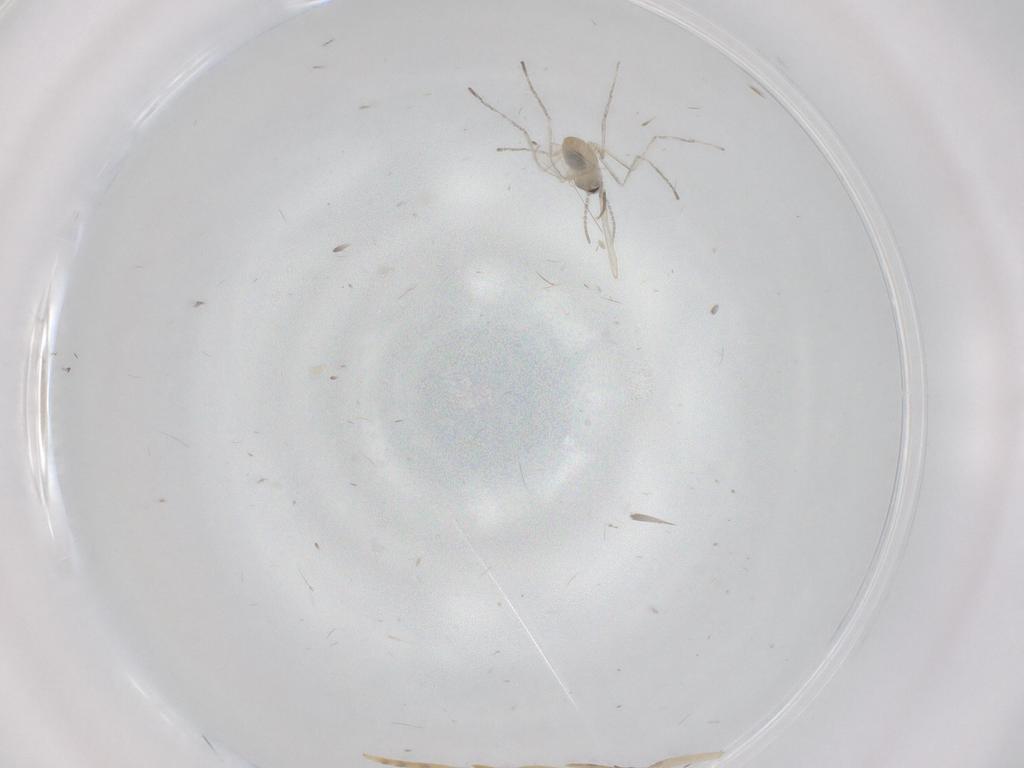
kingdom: Animalia
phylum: Arthropoda
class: Insecta
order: Diptera
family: Cecidomyiidae
